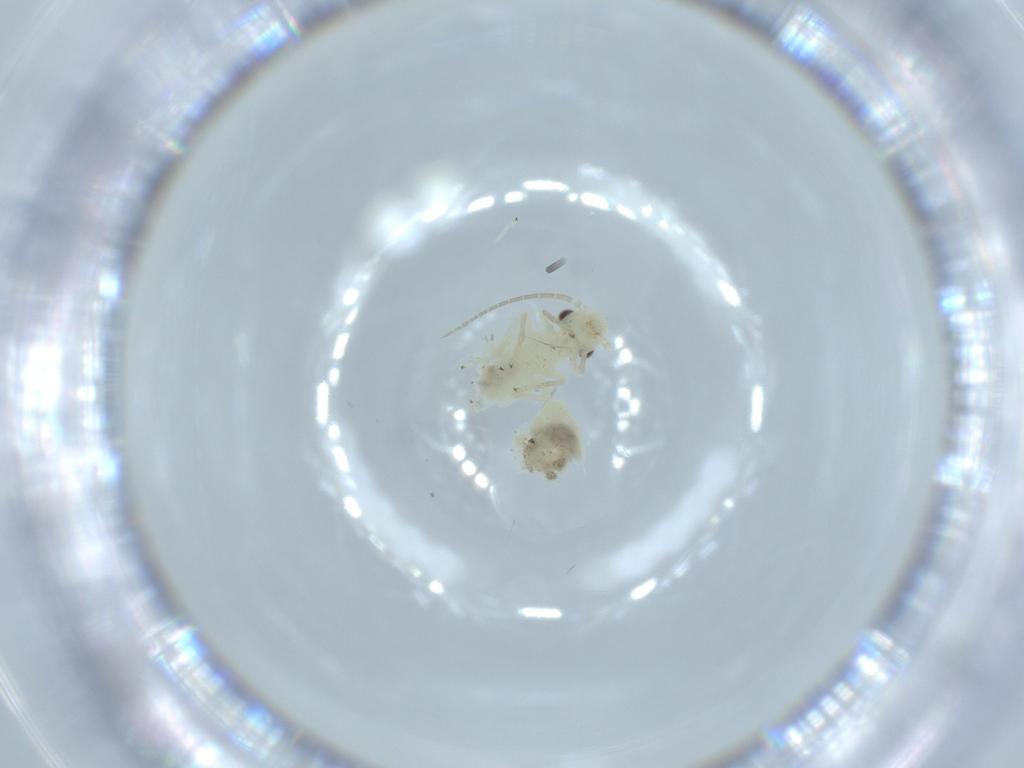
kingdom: Animalia
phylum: Arthropoda
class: Insecta
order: Psocodea
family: Caeciliusidae
